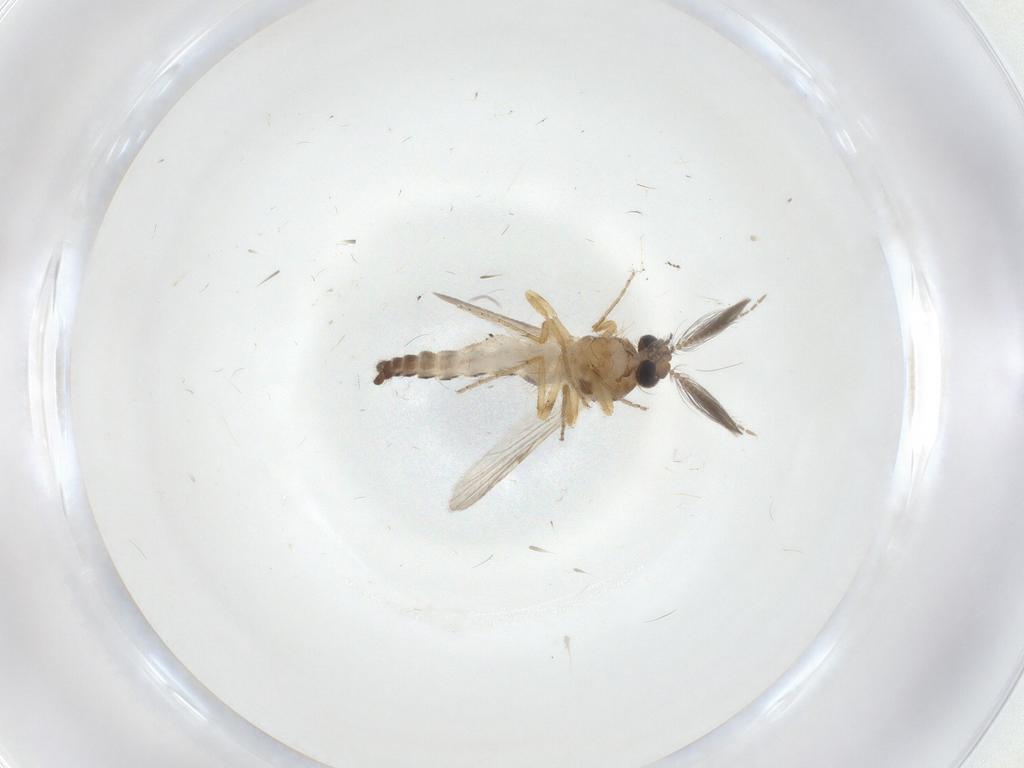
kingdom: Animalia
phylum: Arthropoda
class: Insecta
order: Diptera
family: Ceratopogonidae
